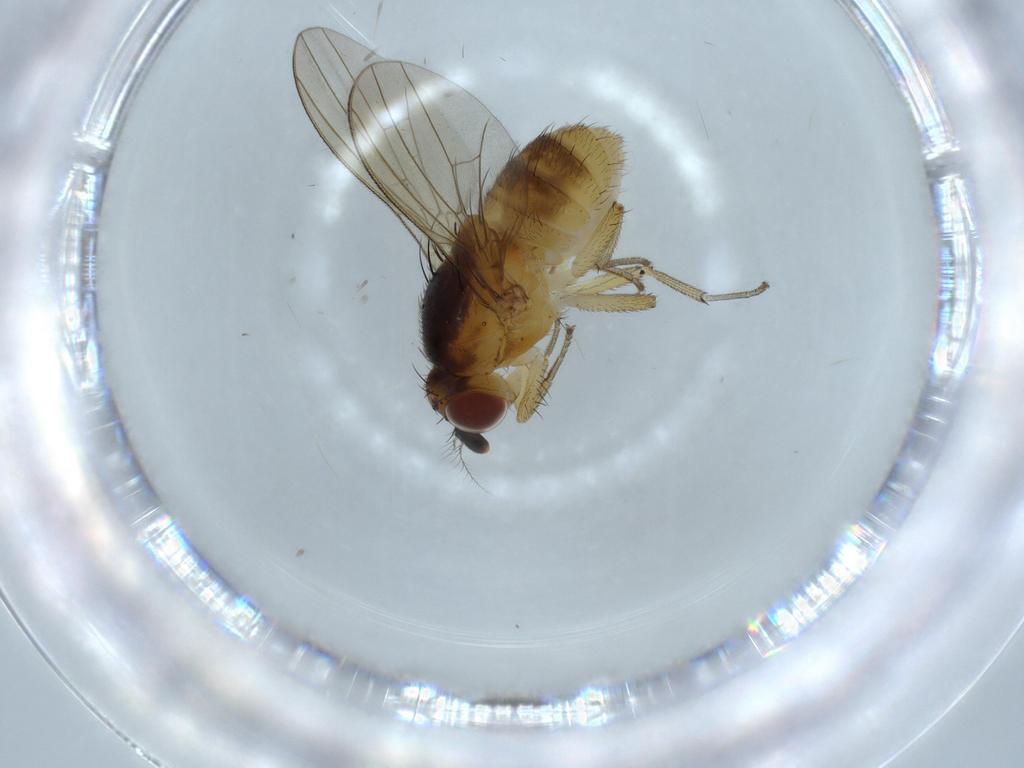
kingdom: Animalia
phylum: Arthropoda
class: Insecta
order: Diptera
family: Lauxaniidae
